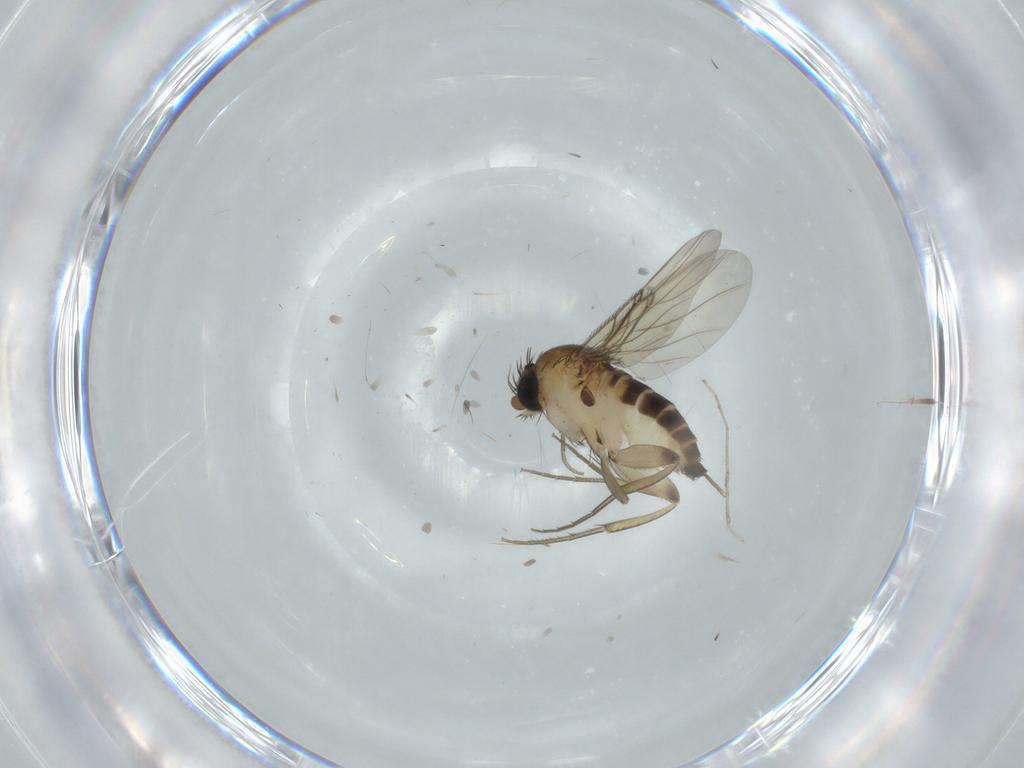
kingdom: Animalia
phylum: Arthropoda
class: Insecta
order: Diptera
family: Phoridae
